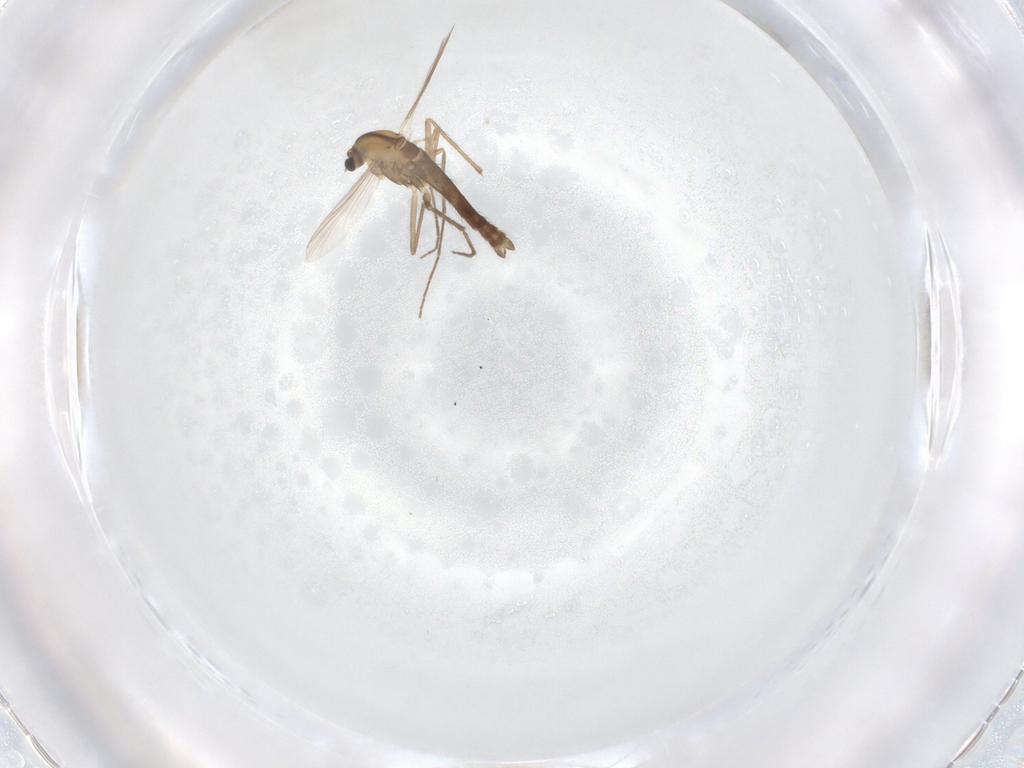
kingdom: Animalia
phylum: Arthropoda
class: Insecta
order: Diptera
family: Chironomidae
